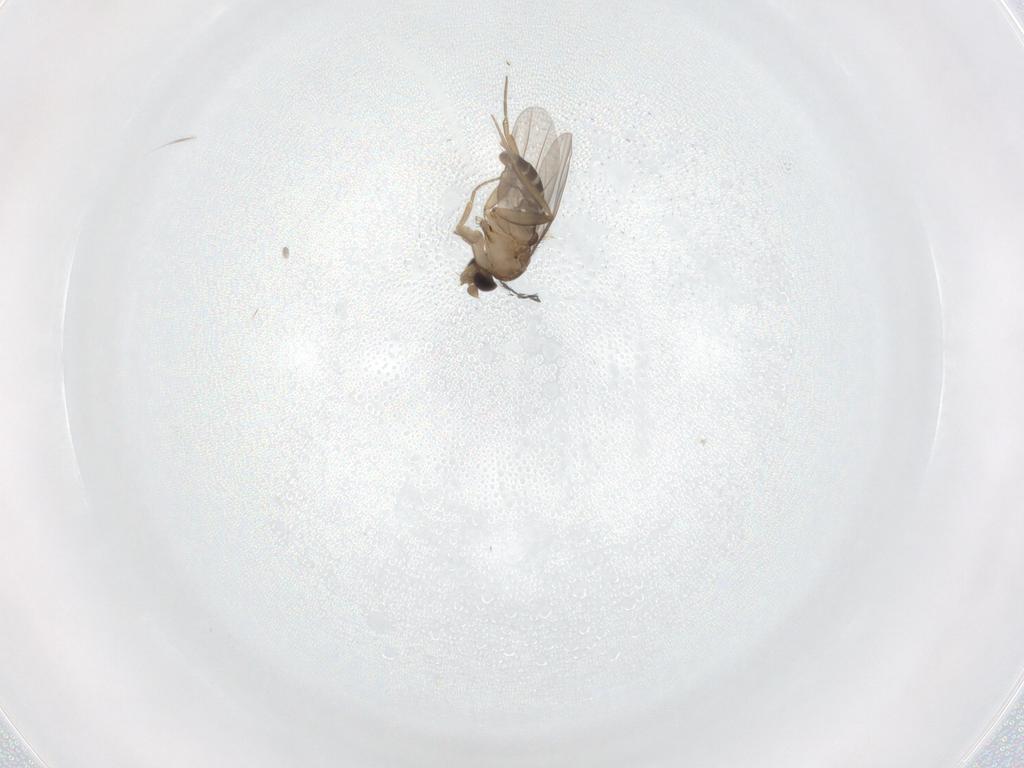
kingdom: Animalia
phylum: Arthropoda
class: Insecta
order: Diptera
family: Phoridae
